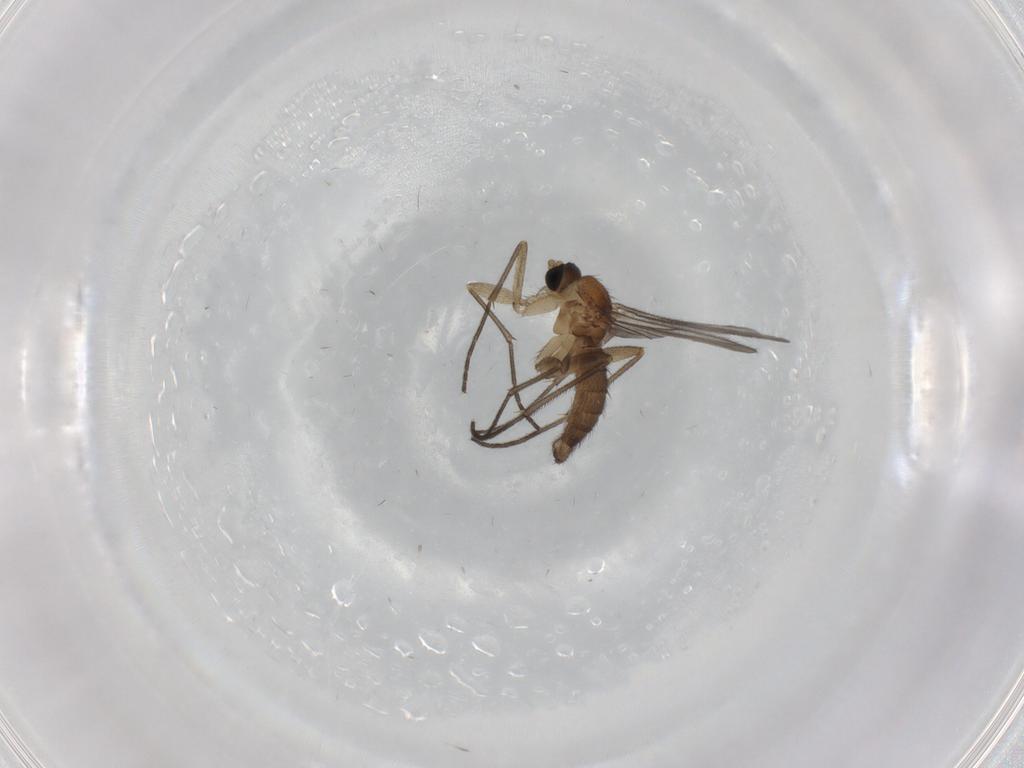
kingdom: Animalia
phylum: Arthropoda
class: Insecta
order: Diptera
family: Sciaridae
